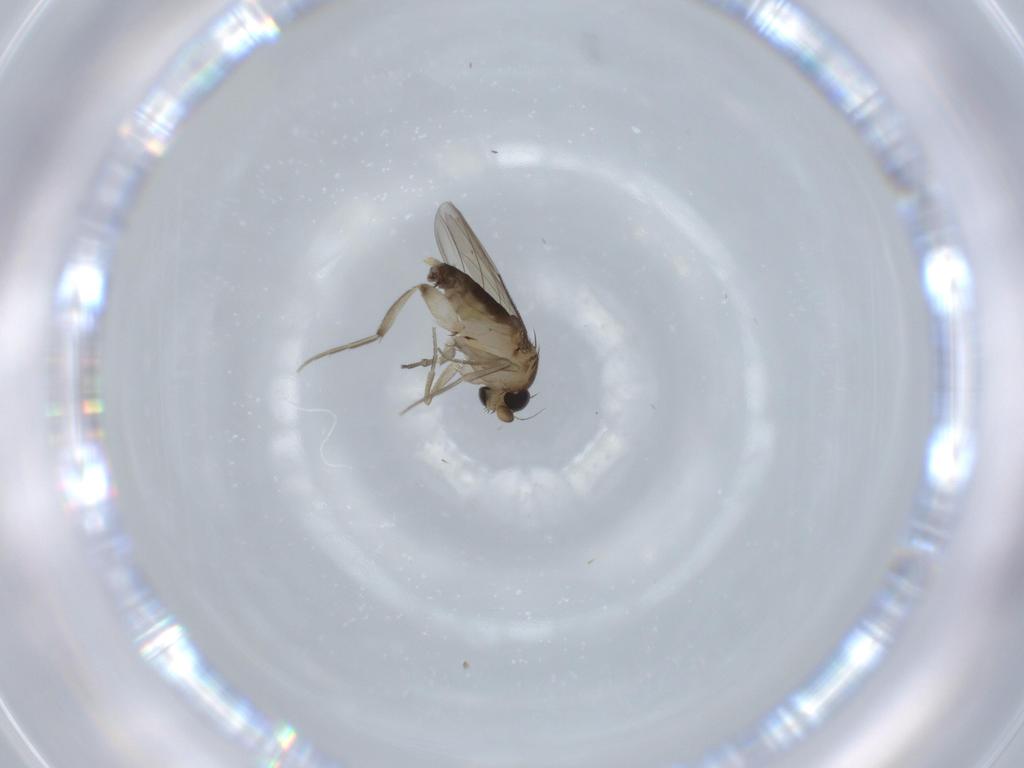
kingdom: Animalia
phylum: Arthropoda
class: Insecta
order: Diptera
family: Phoridae
